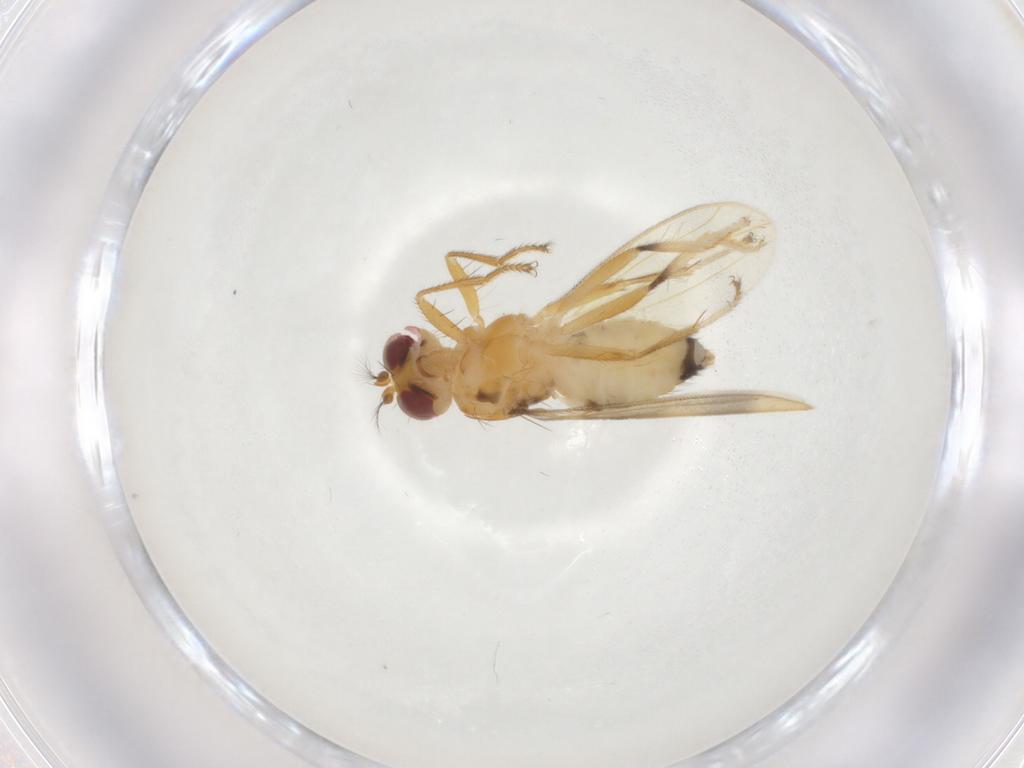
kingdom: Animalia
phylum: Arthropoda
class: Insecta
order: Diptera
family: Periscelididae
